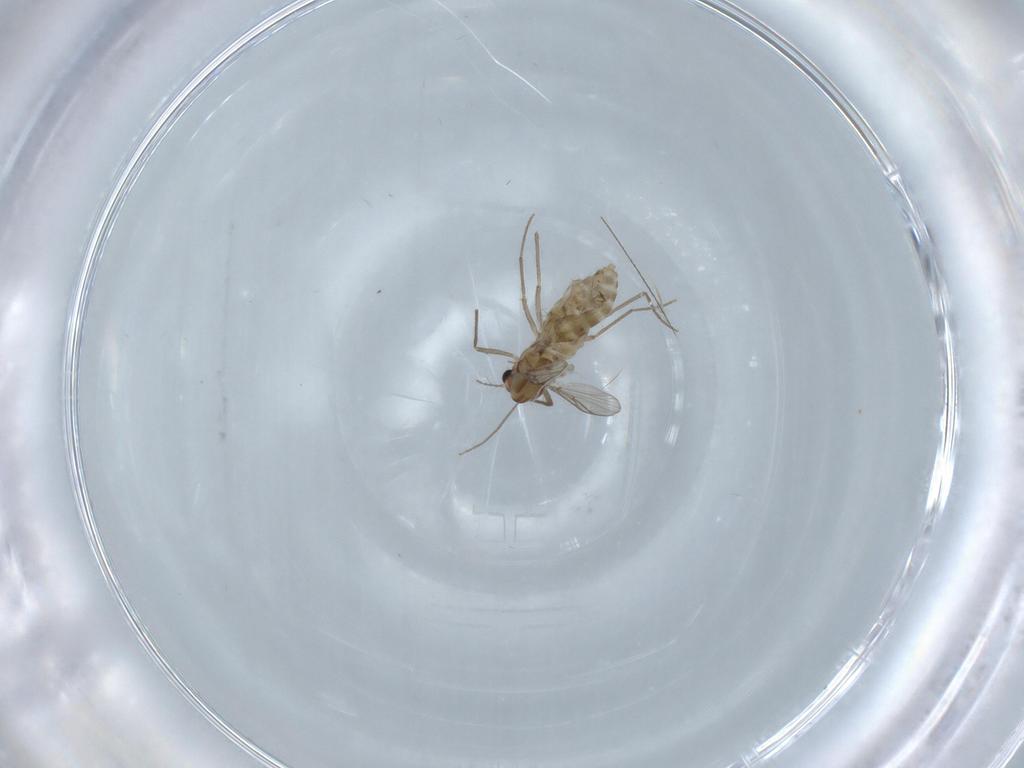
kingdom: Animalia
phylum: Arthropoda
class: Insecta
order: Diptera
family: Chironomidae
